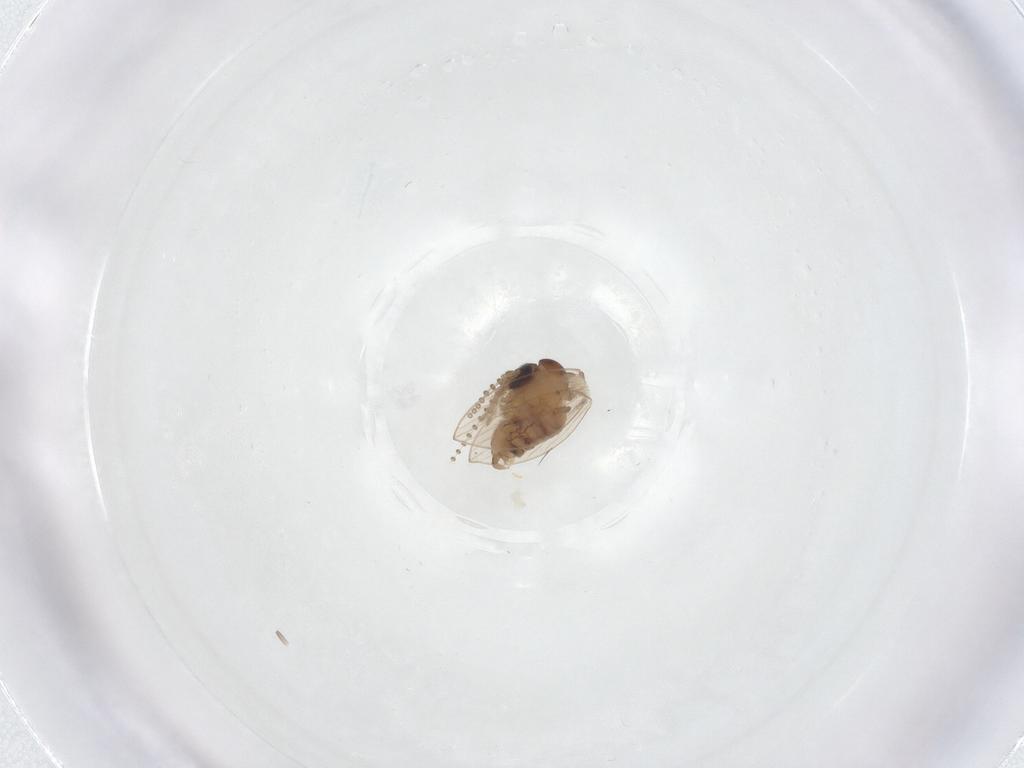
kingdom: Animalia
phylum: Arthropoda
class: Insecta
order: Diptera
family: Psychodidae
